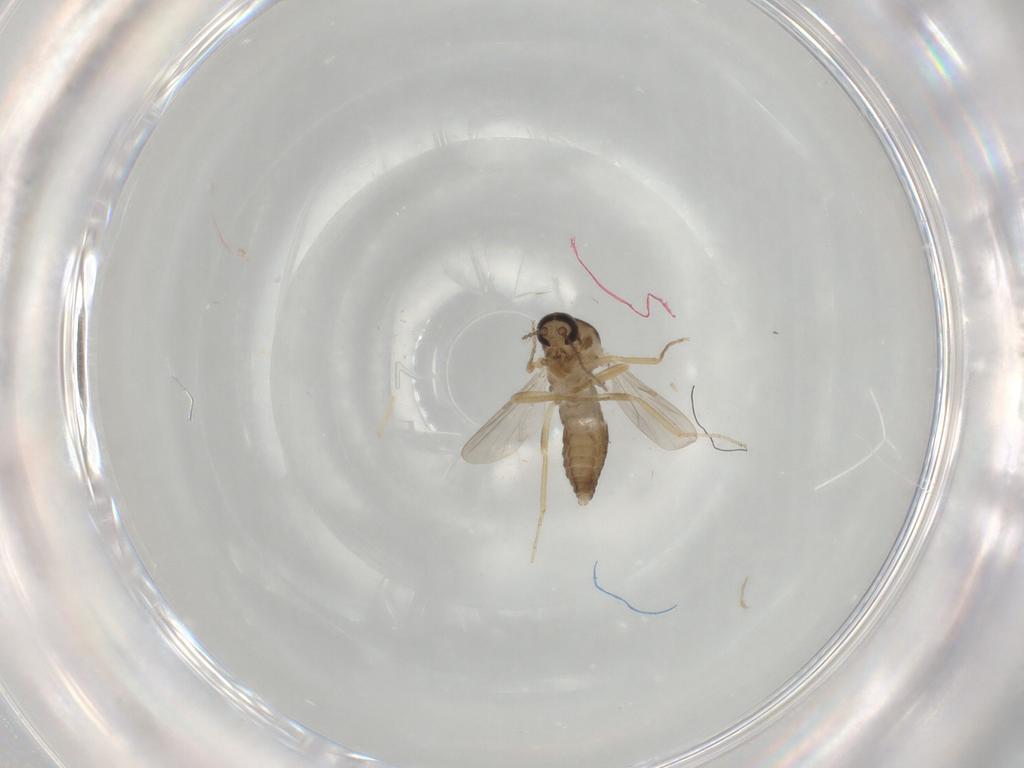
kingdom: Animalia
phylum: Arthropoda
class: Insecta
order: Diptera
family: Ceratopogonidae
